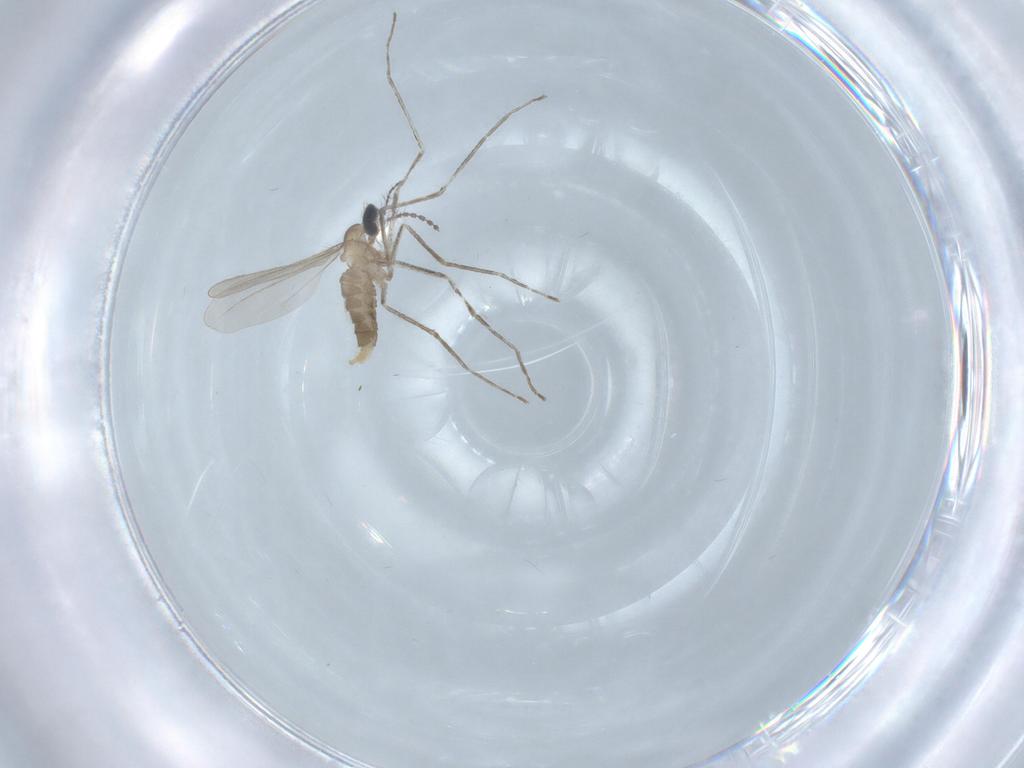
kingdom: Animalia
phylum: Arthropoda
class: Insecta
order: Diptera
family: Cecidomyiidae
